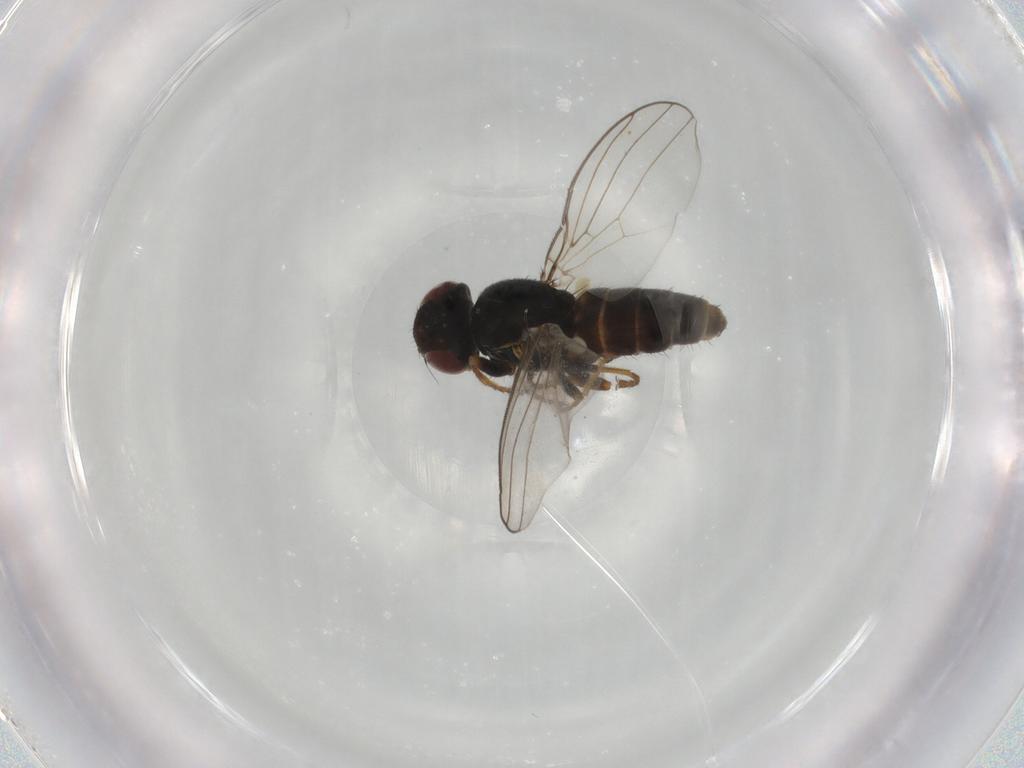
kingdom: Animalia
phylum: Arthropoda
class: Insecta
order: Diptera
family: Chloropidae
